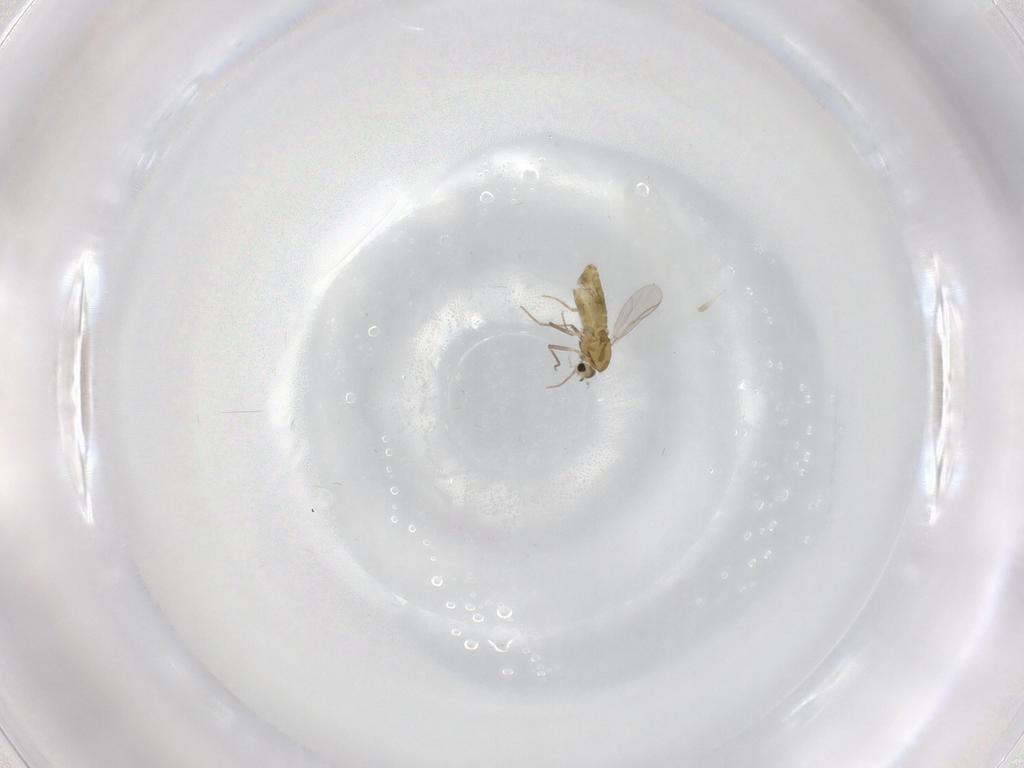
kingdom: Animalia
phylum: Arthropoda
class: Insecta
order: Diptera
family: Chironomidae
